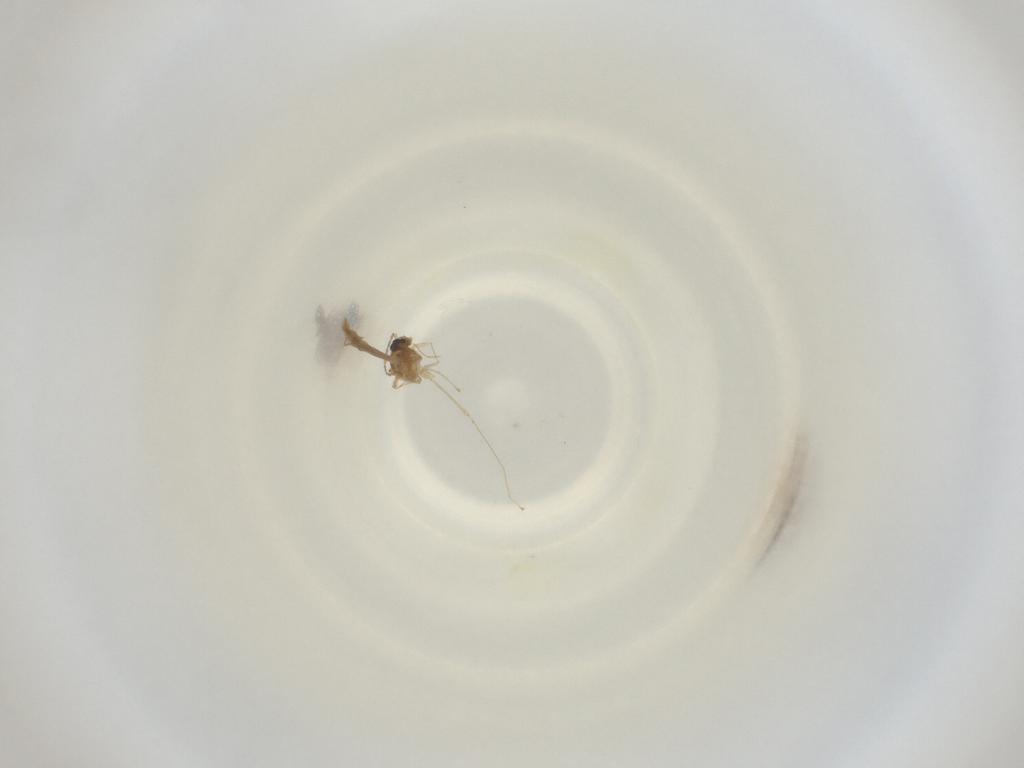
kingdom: Animalia
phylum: Arthropoda
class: Insecta
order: Diptera
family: Cecidomyiidae
